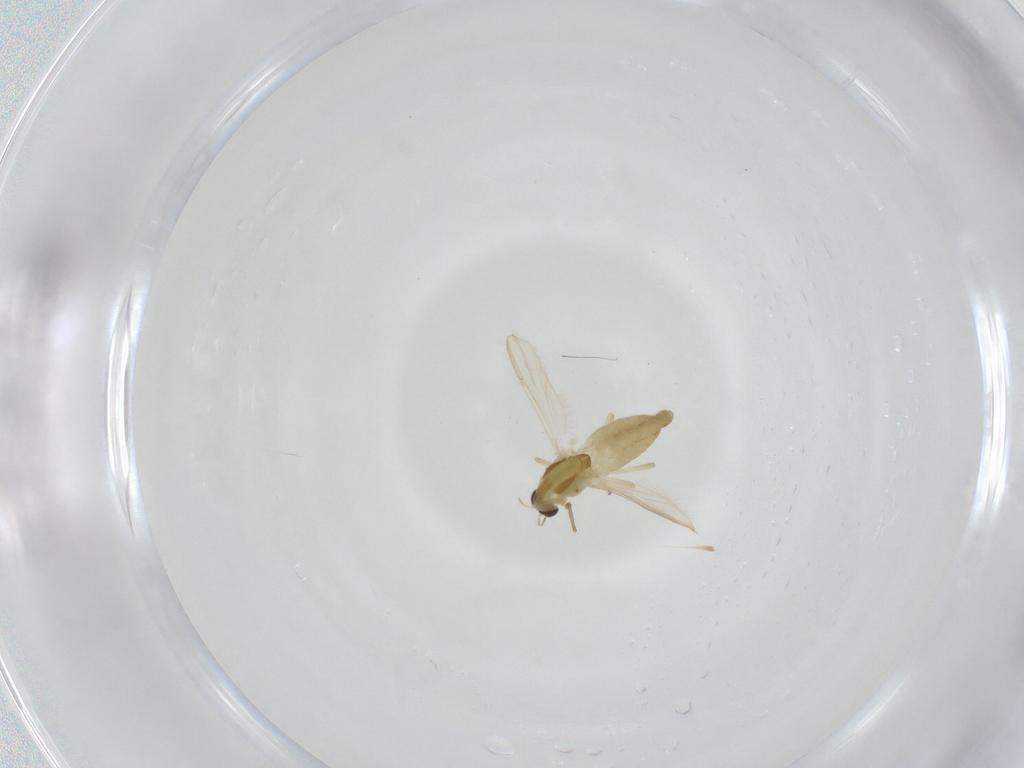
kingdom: Animalia
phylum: Arthropoda
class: Insecta
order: Diptera
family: Chironomidae
